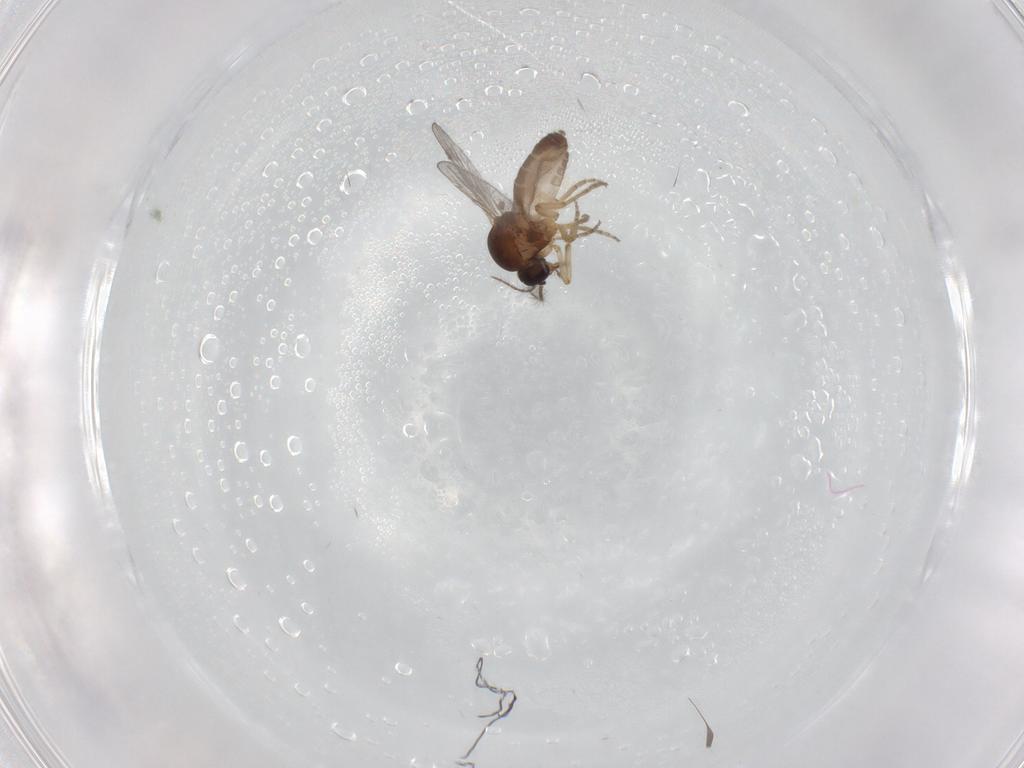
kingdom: Animalia
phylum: Arthropoda
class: Insecta
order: Diptera
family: Ceratopogonidae
